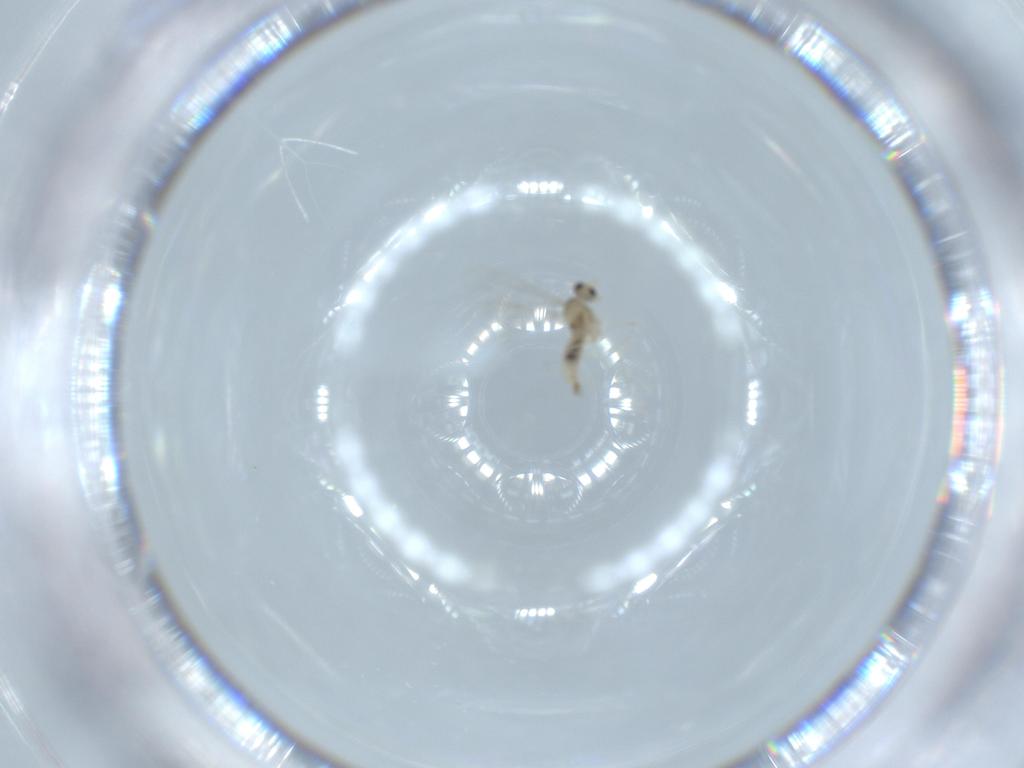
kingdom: Animalia
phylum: Arthropoda
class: Insecta
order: Diptera
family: Cecidomyiidae
